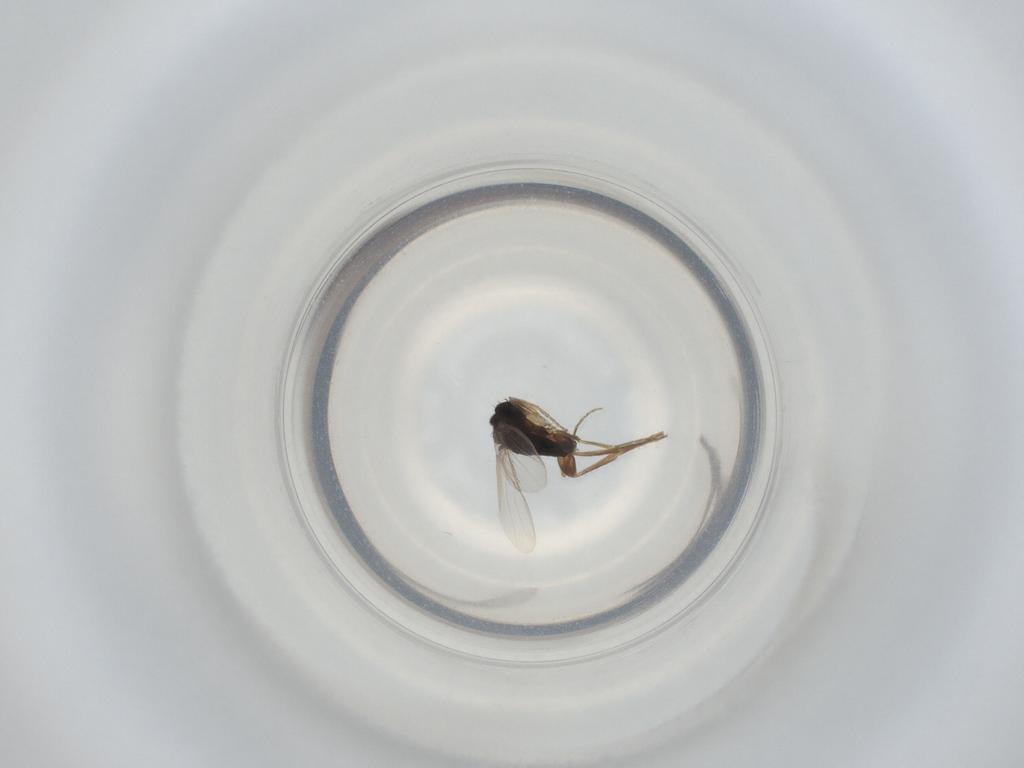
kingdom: Animalia
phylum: Arthropoda
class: Insecta
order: Diptera
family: Phoridae
